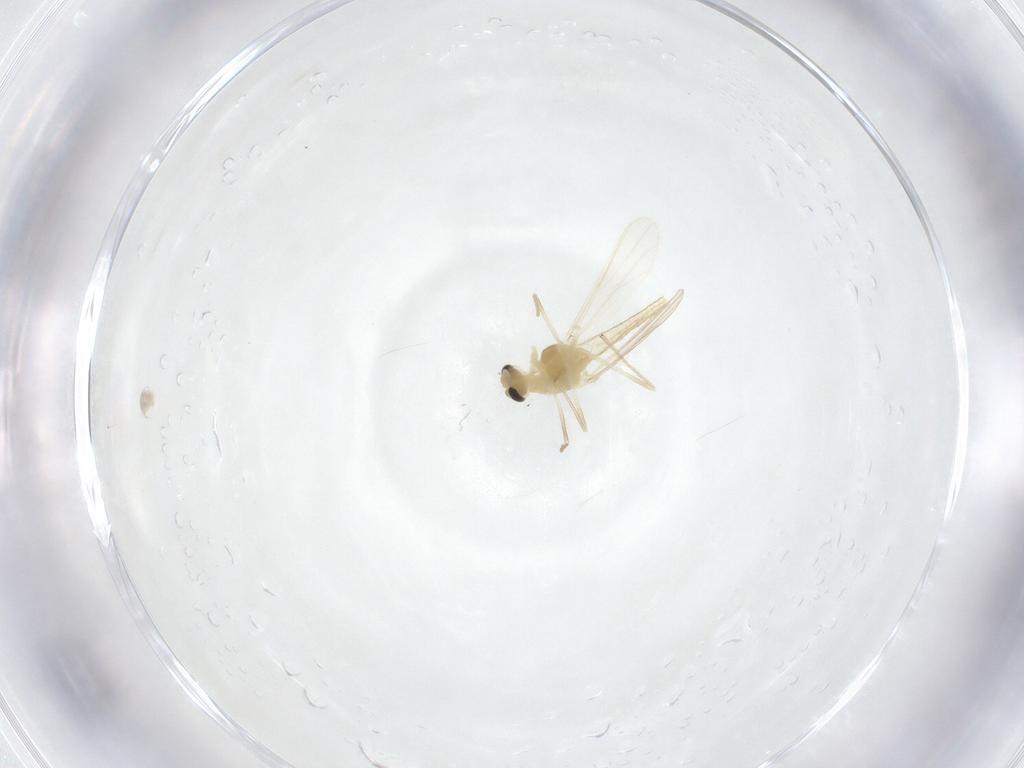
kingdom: Animalia
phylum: Arthropoda
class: Insecta
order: Diptera
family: Chironomidae
